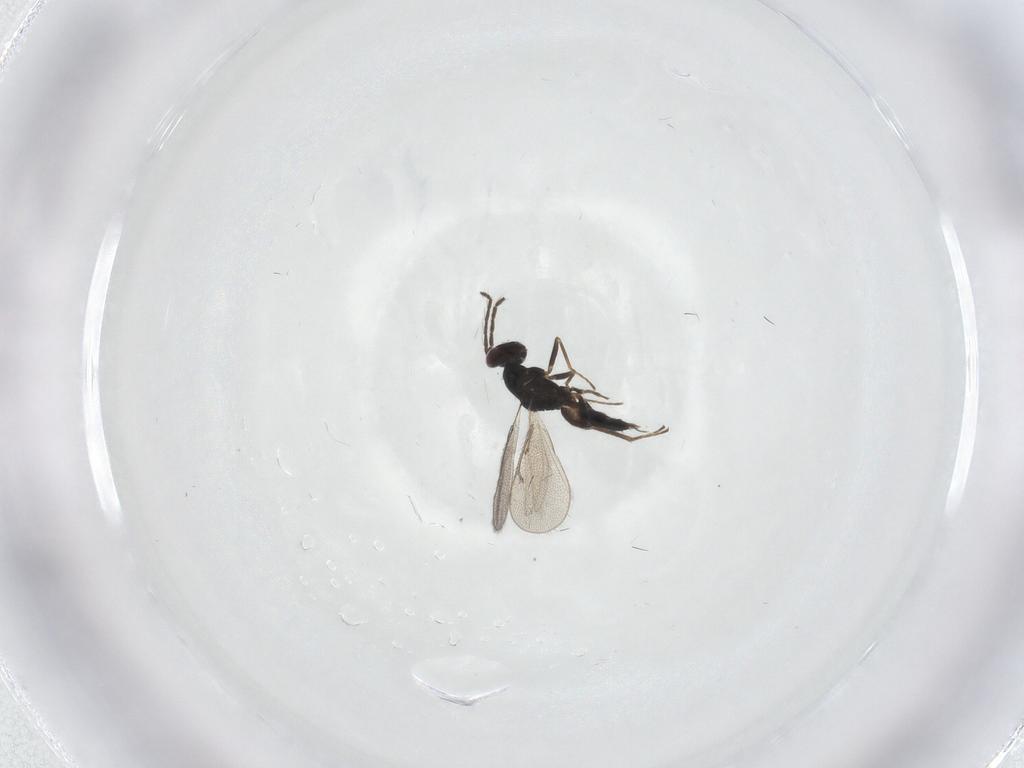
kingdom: Animalia
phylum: Arthropoda
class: Insecta
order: Hymenoptera
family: Eulophidae
